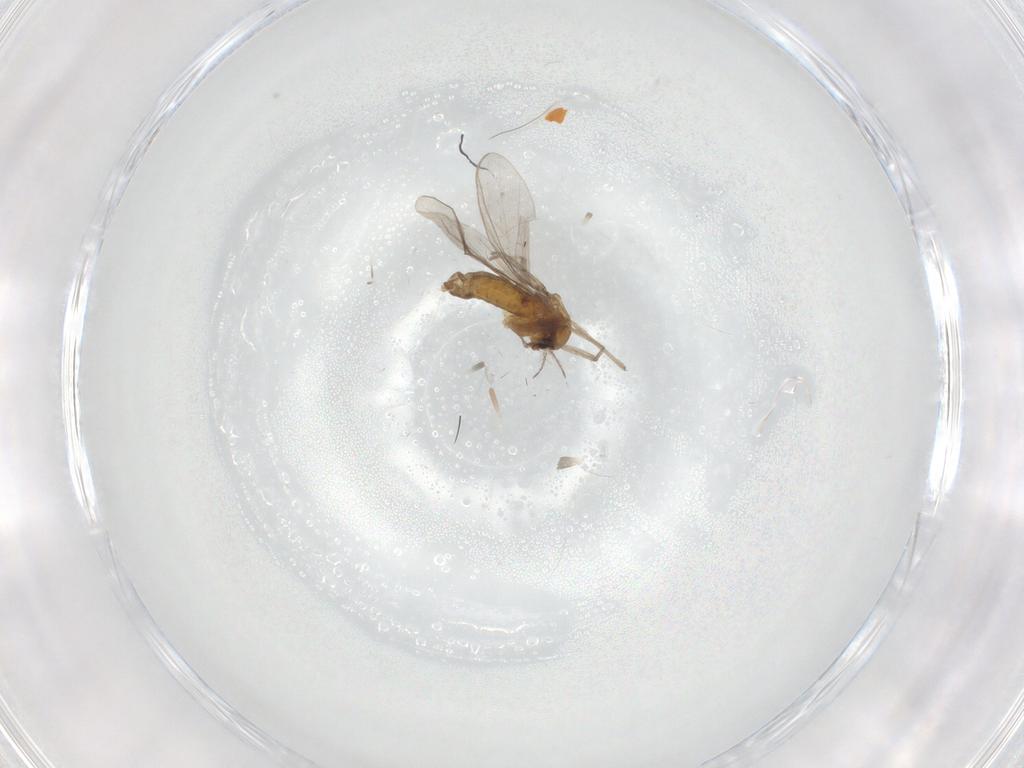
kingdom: Animalia
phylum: Arthropoda
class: Insecta
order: Diptera
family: Chironomidae
